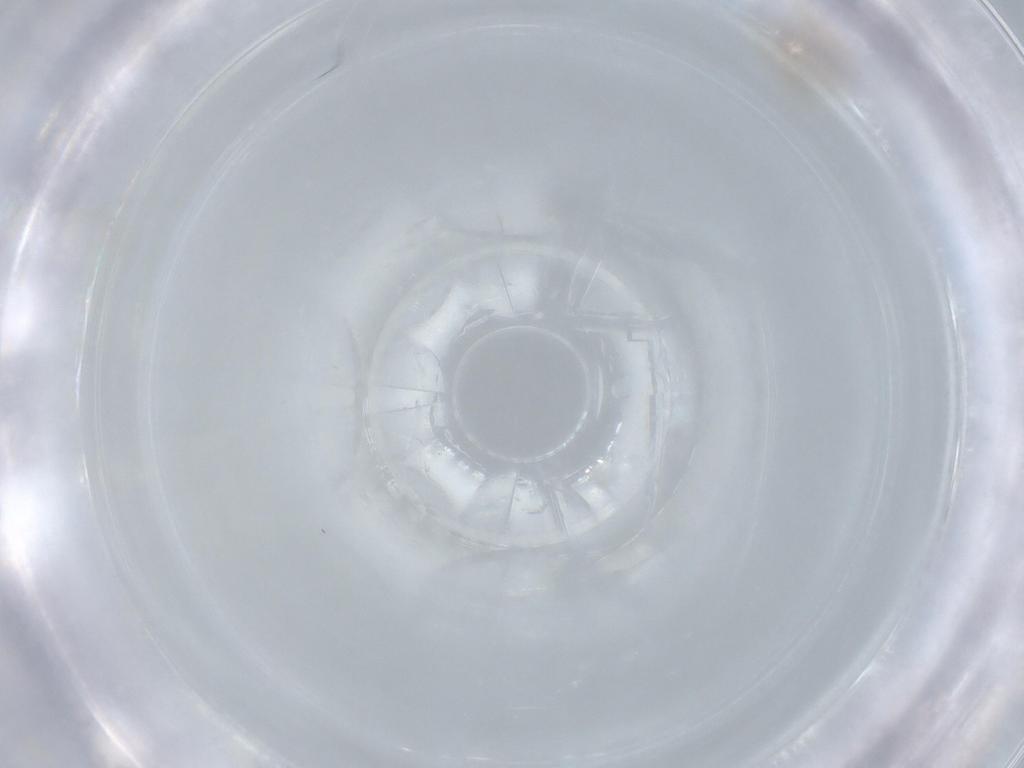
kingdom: Animalia
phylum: Arthropoda
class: Arachnida
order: Araneae
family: Oonopidae
